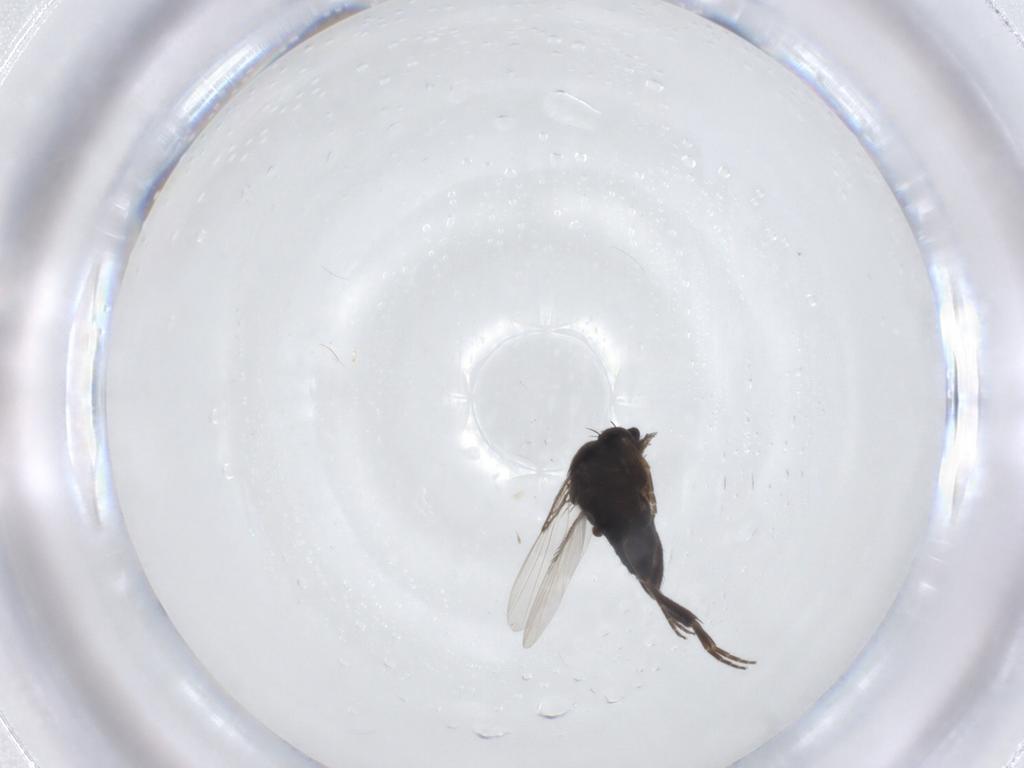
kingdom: Animalia
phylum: Arthropoda
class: Insecta
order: Diptera
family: Phoridae
